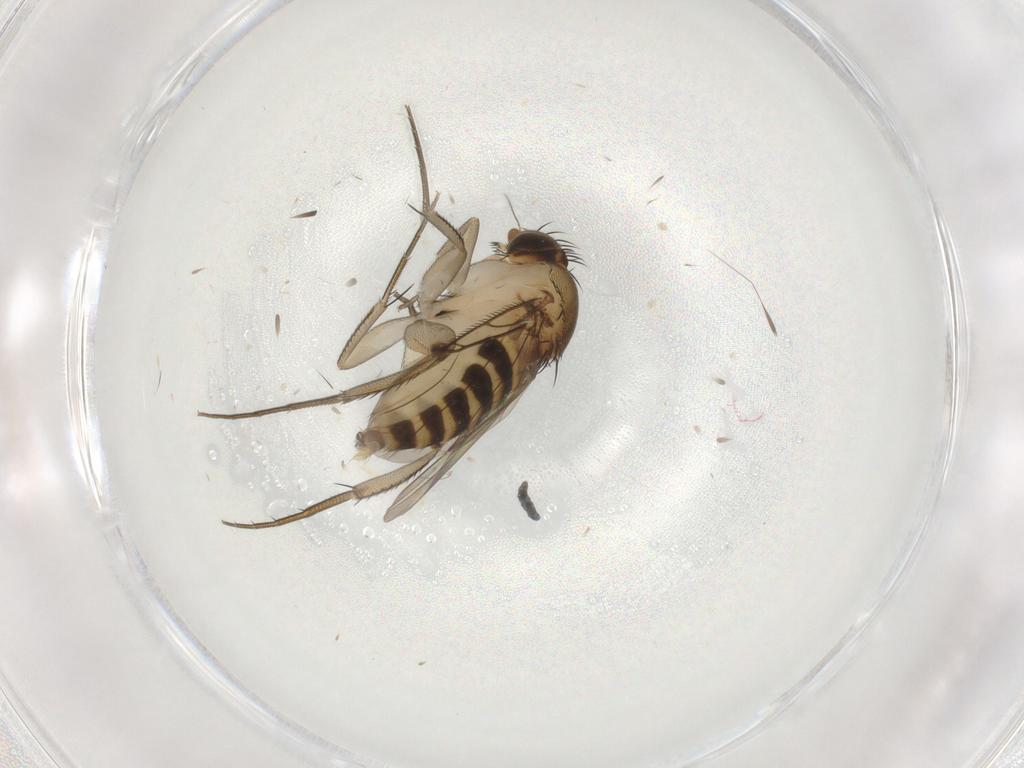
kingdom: Animalia
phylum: Arthropoda
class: Insecta
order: Diptera
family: Phoridae
